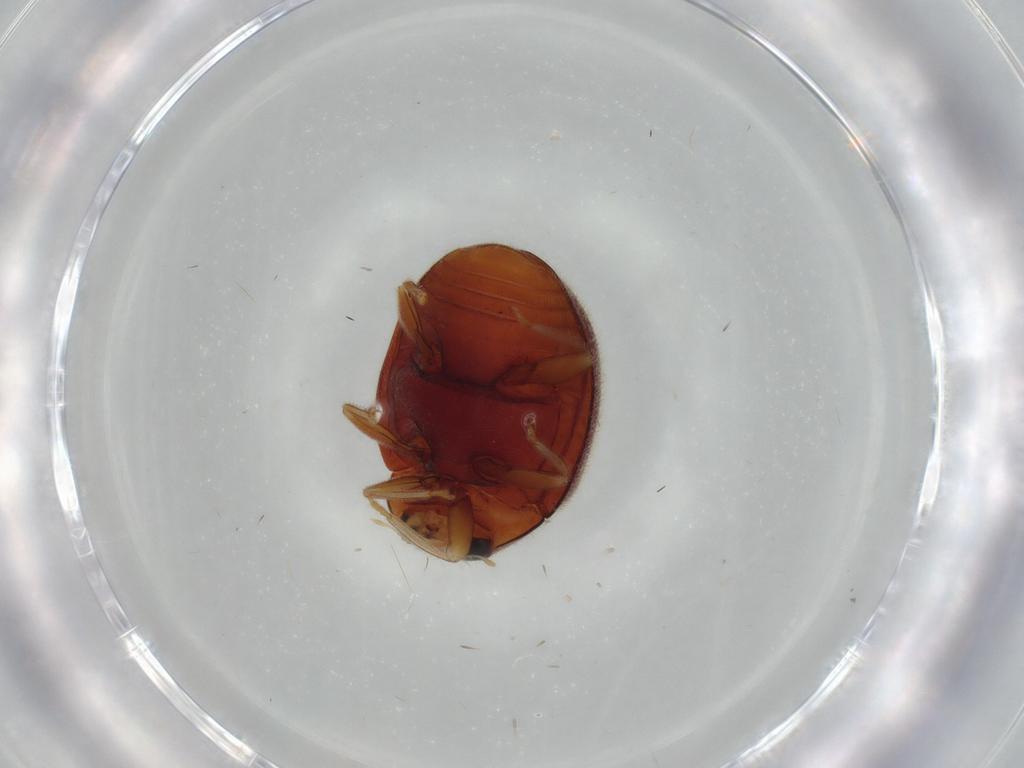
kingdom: Animalia
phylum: Arthropoda
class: Insecta
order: Coleoptera
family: Coccinellidae
